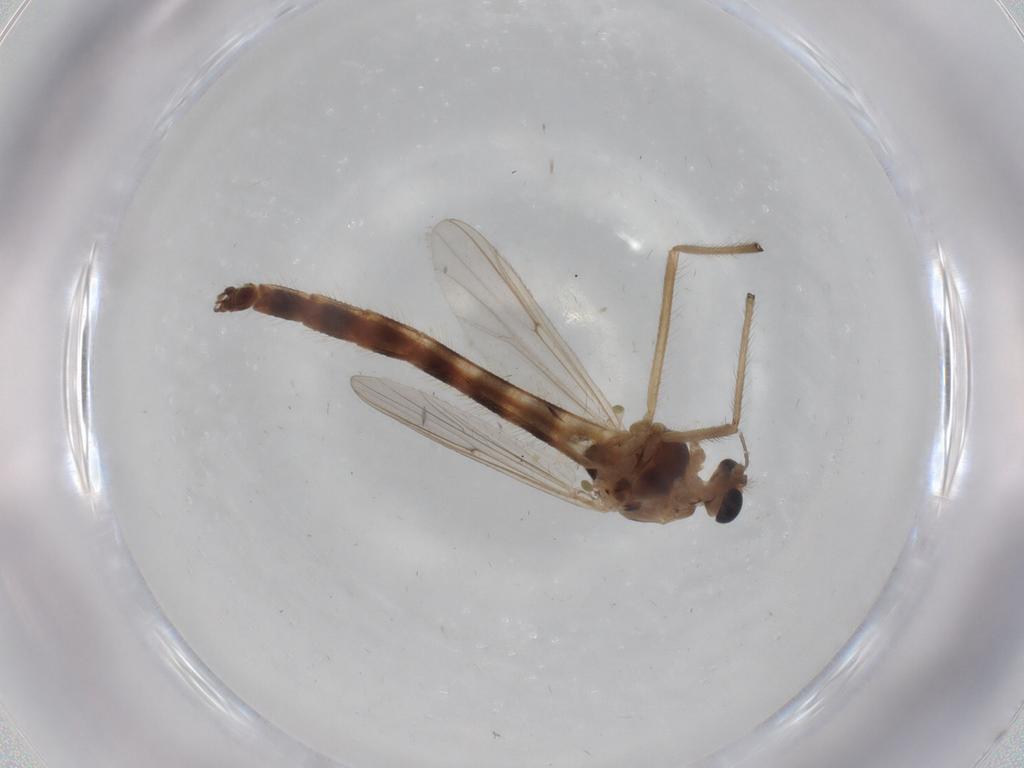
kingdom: Animalia
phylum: Arthropoda
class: Insecta
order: Diptera
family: Chironomidae
